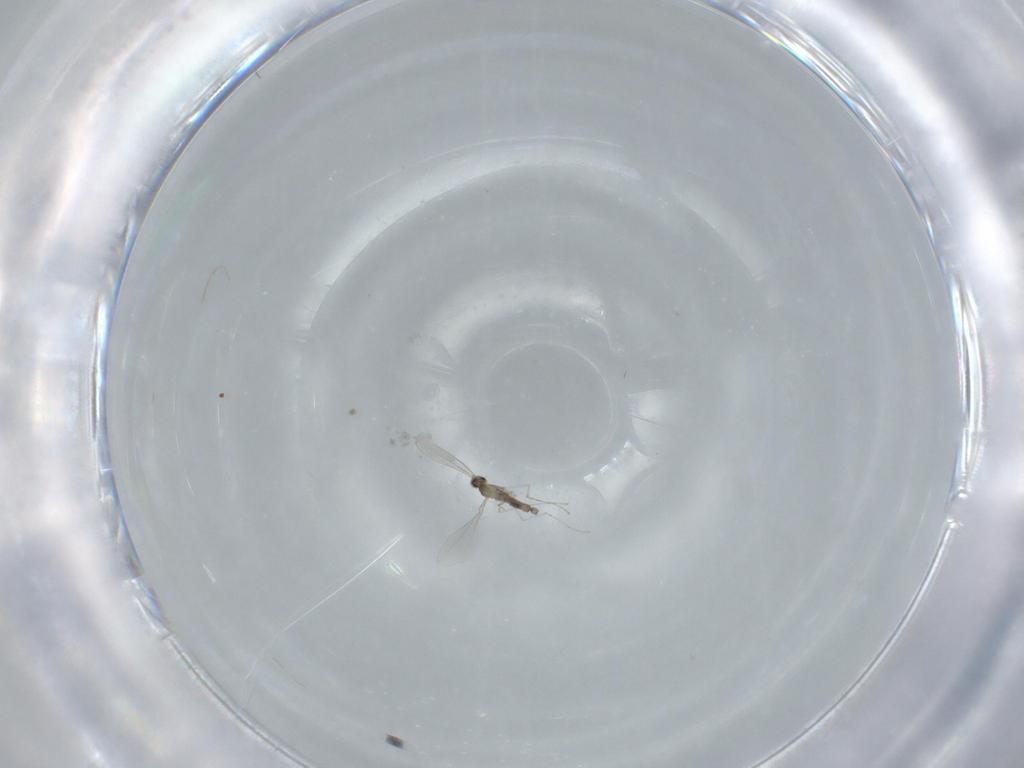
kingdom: Animalia
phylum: Arthropoda
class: Insecta
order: Diptera
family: Cecidomyiidae
